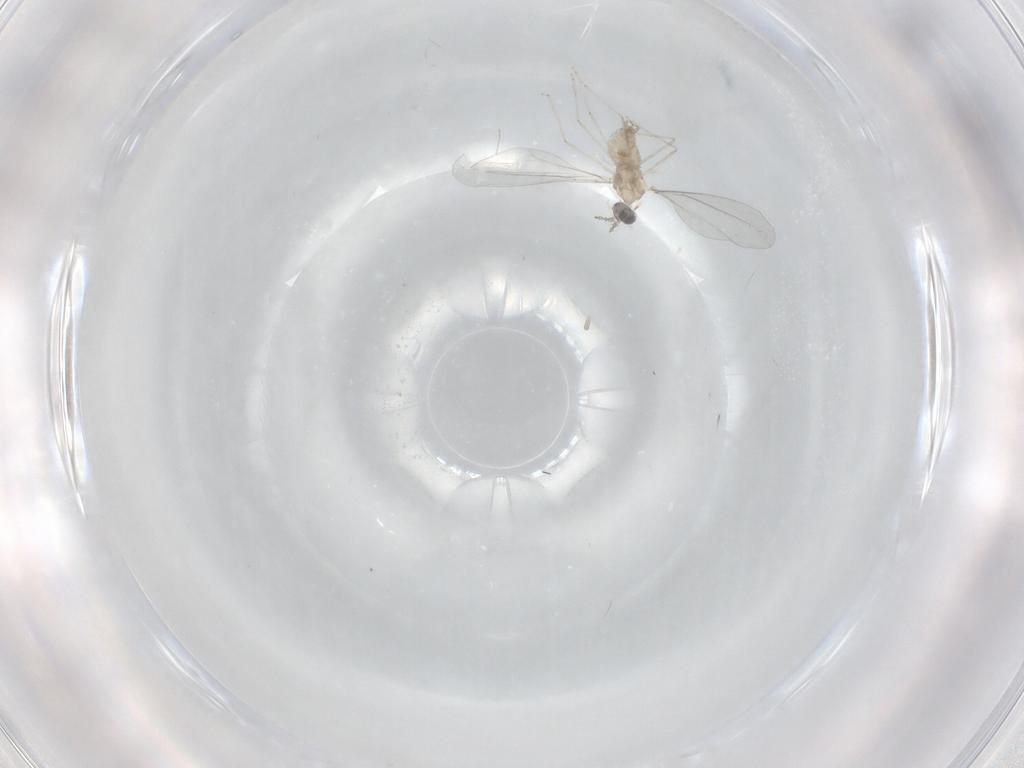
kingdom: Animalia
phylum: Arthropoda
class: Insecta
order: Diptera
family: Cecidomyiidae
